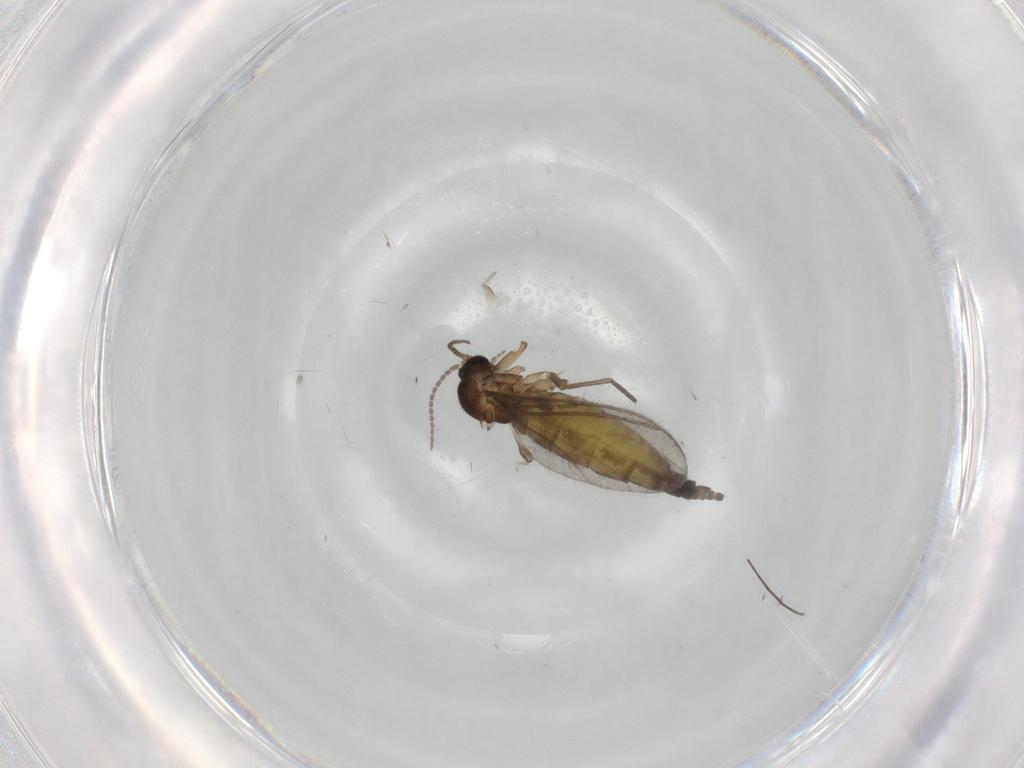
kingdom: Animalia
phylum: Arthropoda
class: Insecta
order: Diptera
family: Sciaridae
